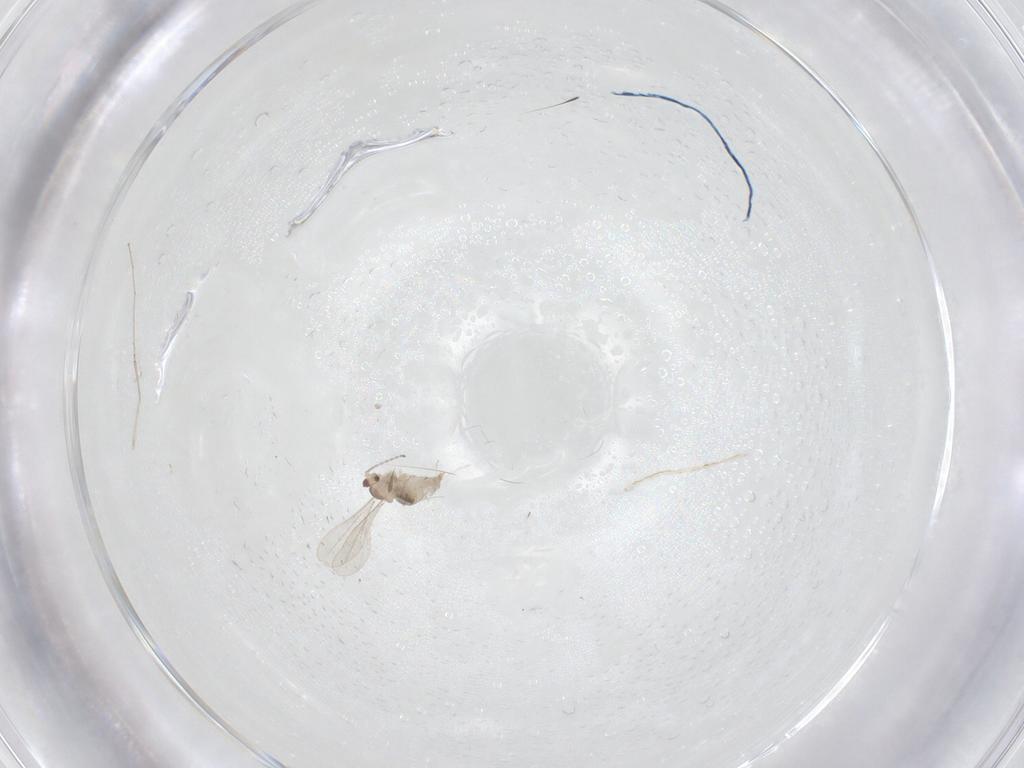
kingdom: Animalia
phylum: Arthropoda
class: Insecta
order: Diptera
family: Cecidomyiidae
